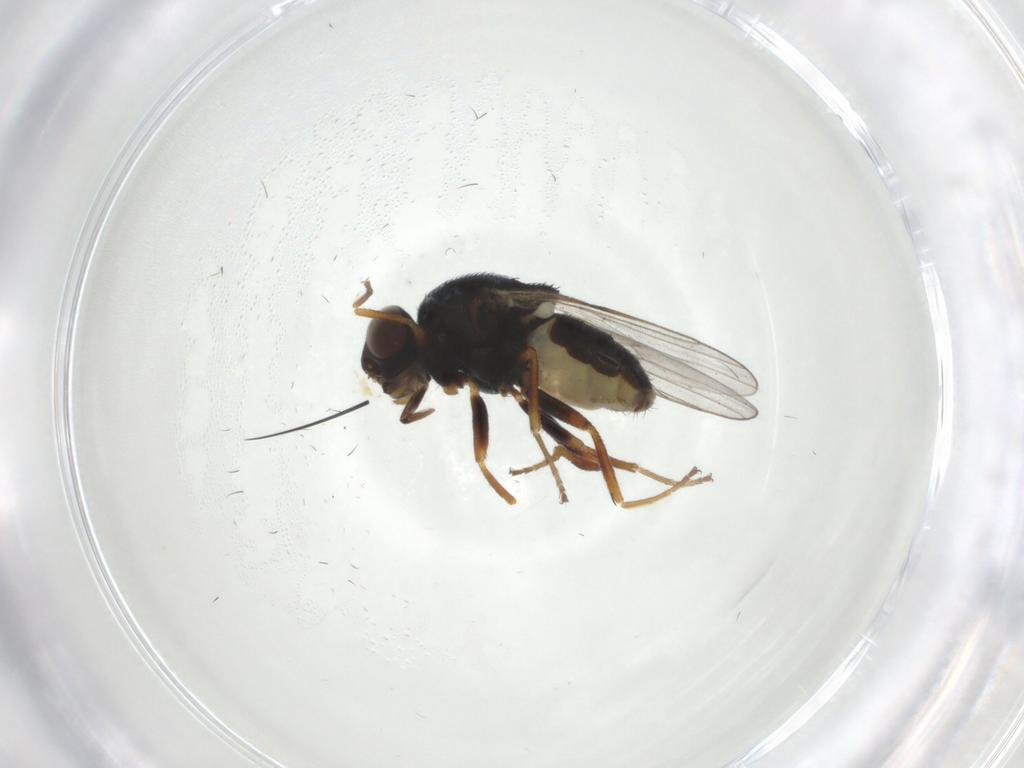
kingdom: Animalia
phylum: Arthropoda
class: Insecta
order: Diptera
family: Chloropidae
